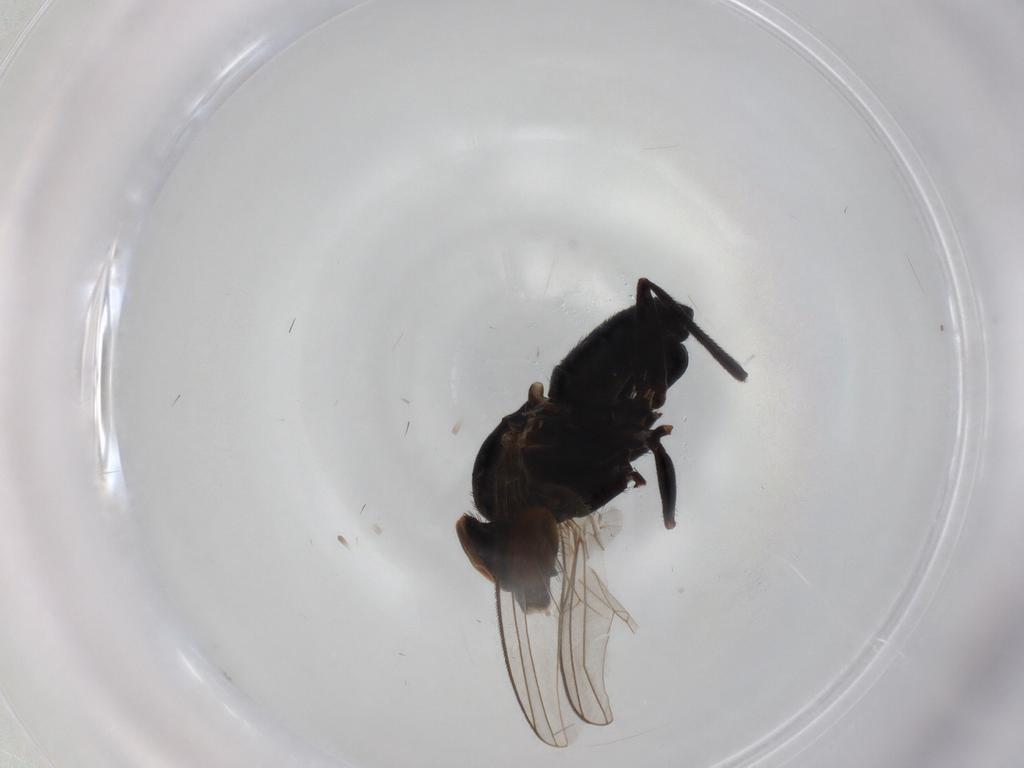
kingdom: Animalia
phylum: Arthropoda
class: Insecta
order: Diptera
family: Dolichopodidae
